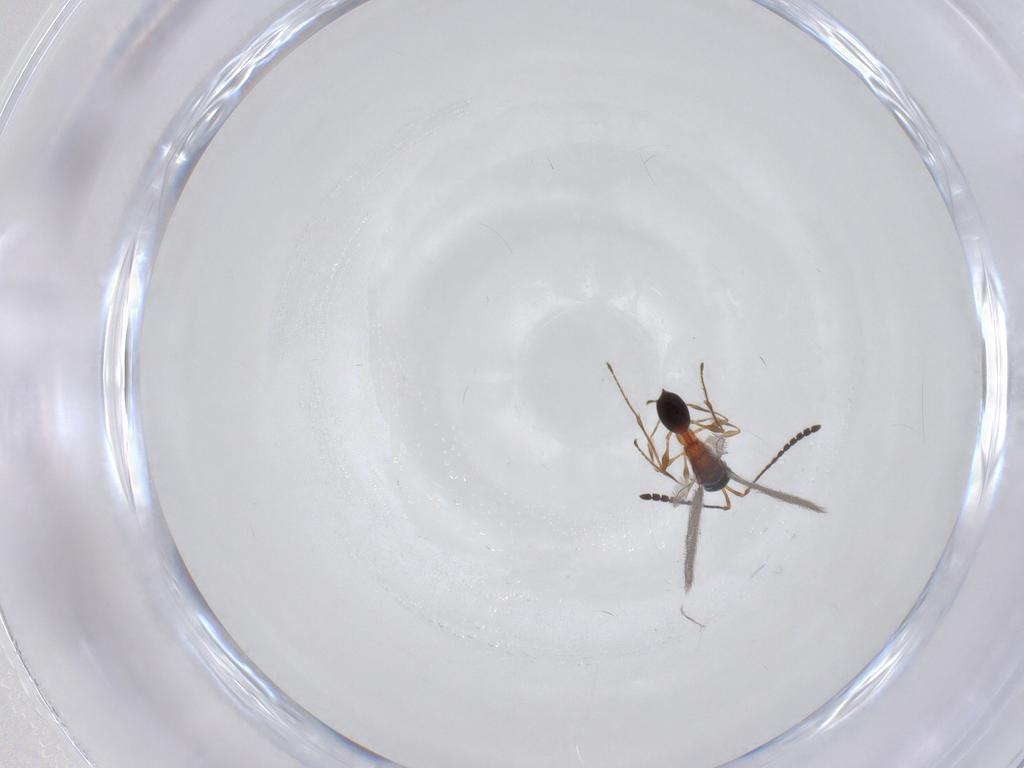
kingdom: Animalia
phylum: Arthropoda
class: Insecta
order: Hymenoptera
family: Diapriidae
